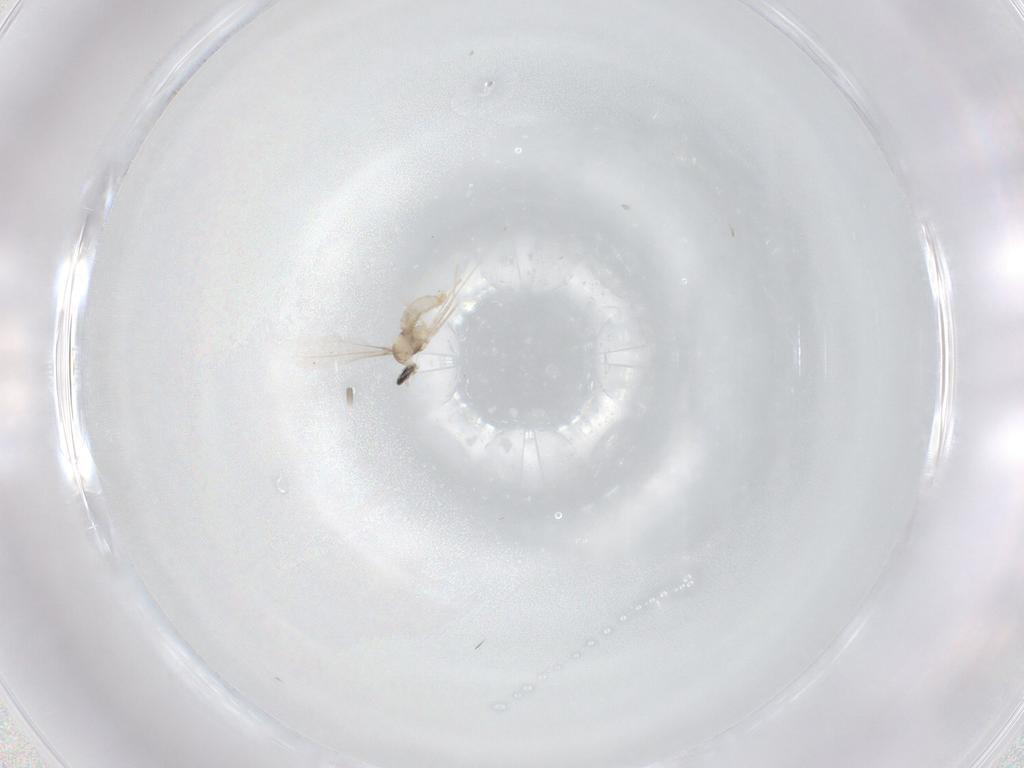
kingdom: Animalia
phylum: Arthropoda
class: Insecta
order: Diptera
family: Cecidomyiidae
